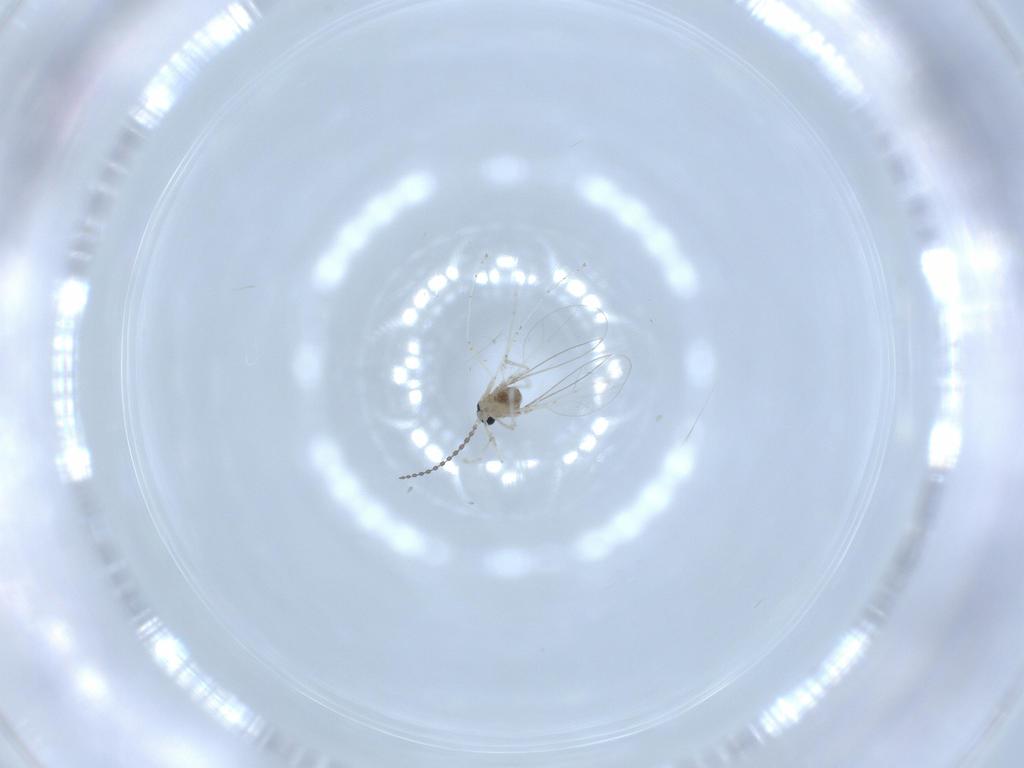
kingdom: Animalia
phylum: Arthropoda
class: Insecta
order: Diptera
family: Cecidomyiidae
